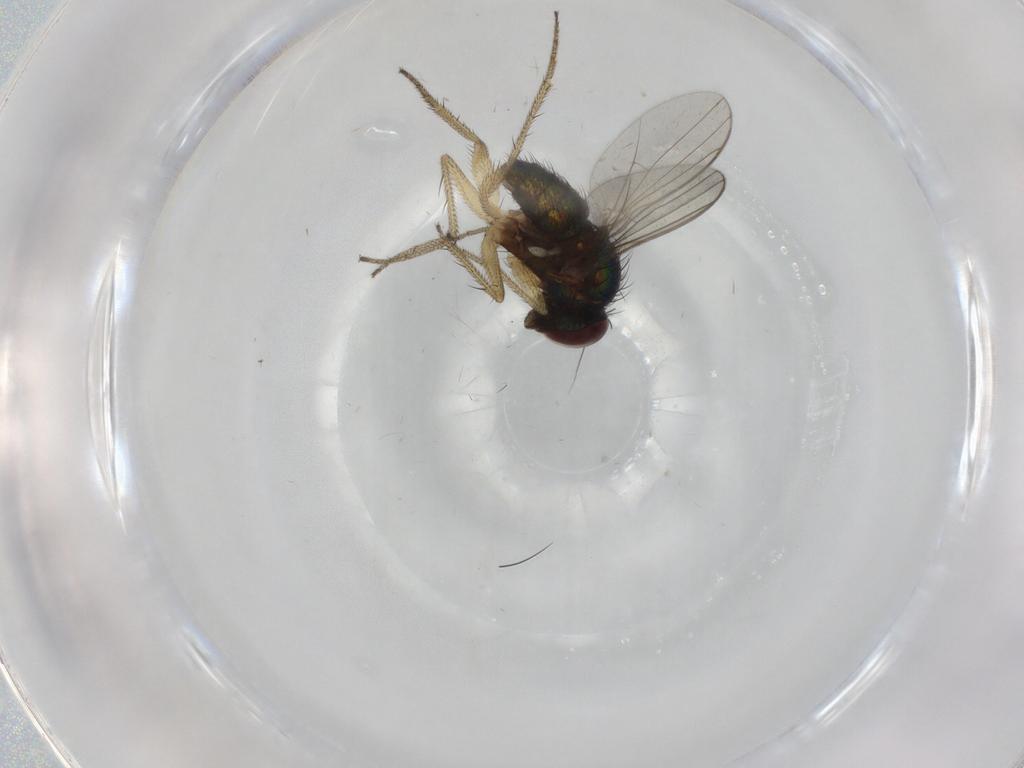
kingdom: Animalia
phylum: Arthropoda
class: Insecta
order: Diptera
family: Dolichopodidae
